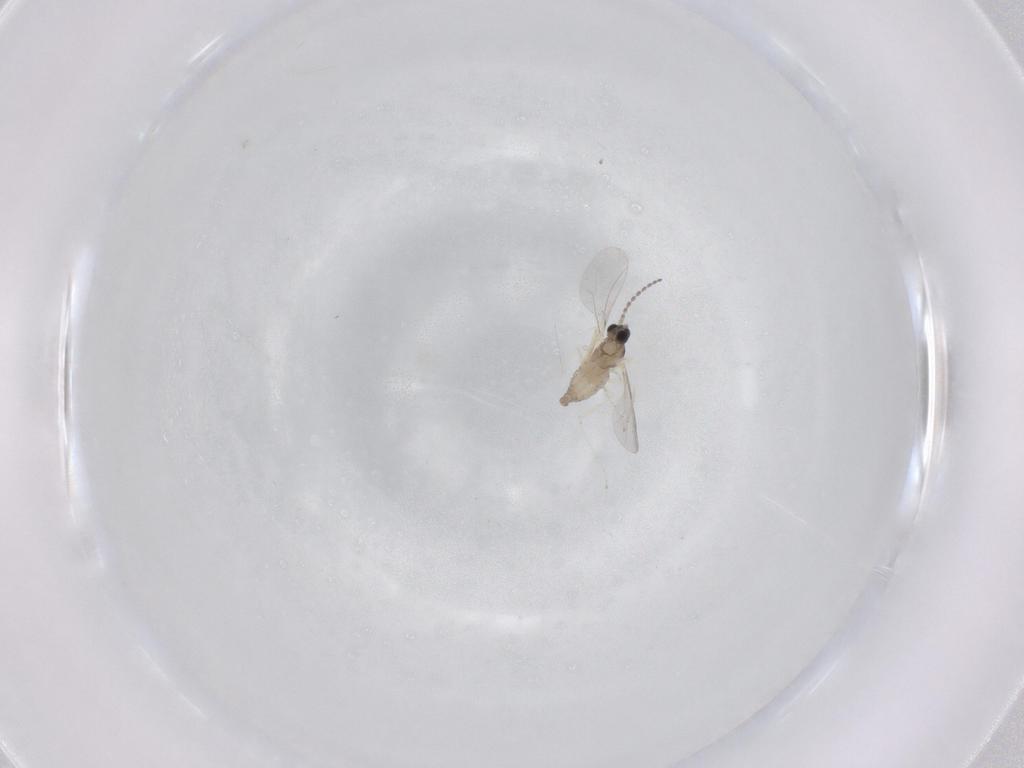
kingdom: Animalia
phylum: Arthropoda
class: Insecta
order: Diptera
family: Cecidomyiidae
